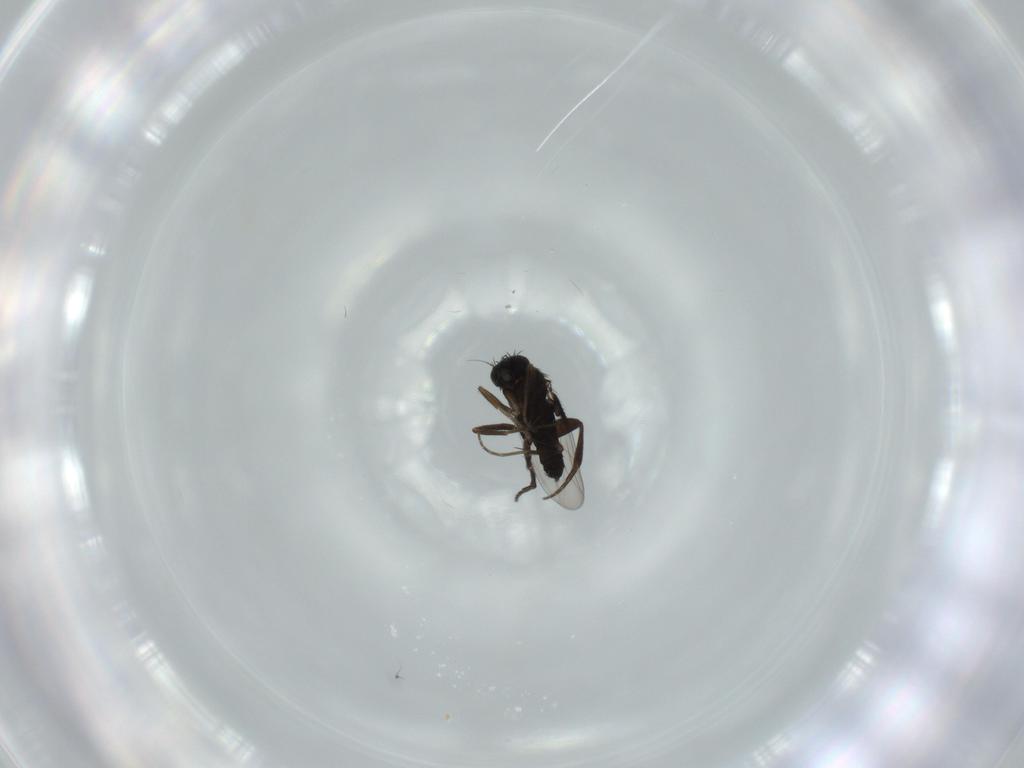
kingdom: Animalia
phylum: Arthropoda
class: Insecta
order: Diptera
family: Phoridae
